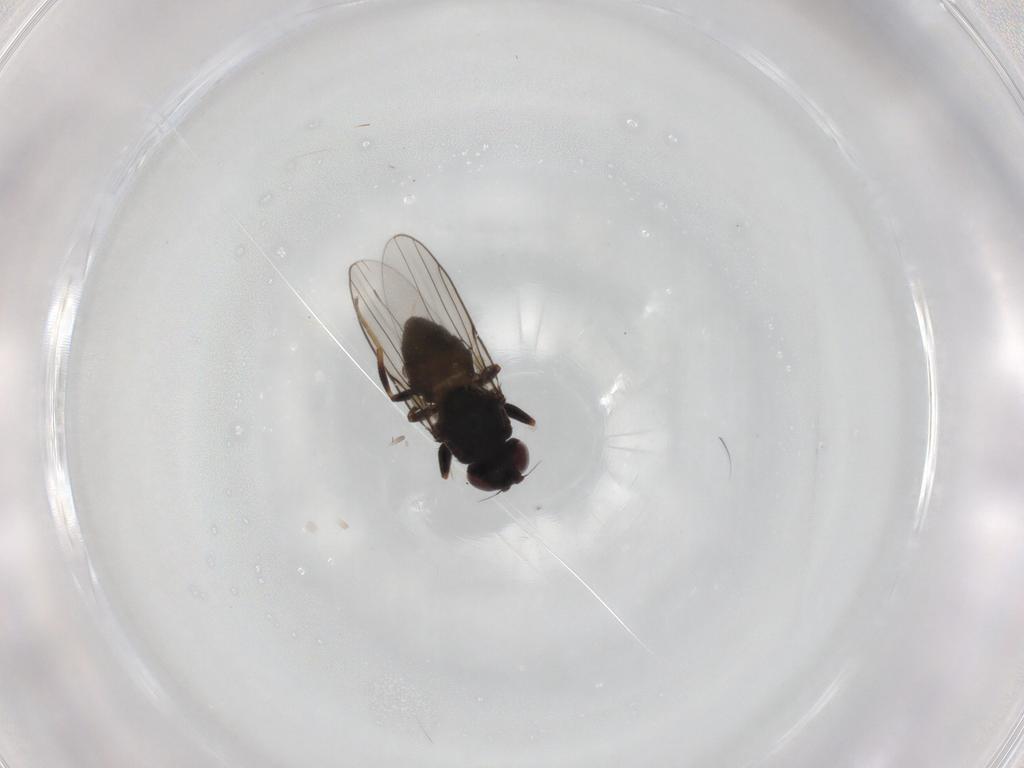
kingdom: Animalia
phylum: Arthropoda
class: Insecta
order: Diptera
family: Chloropidae
